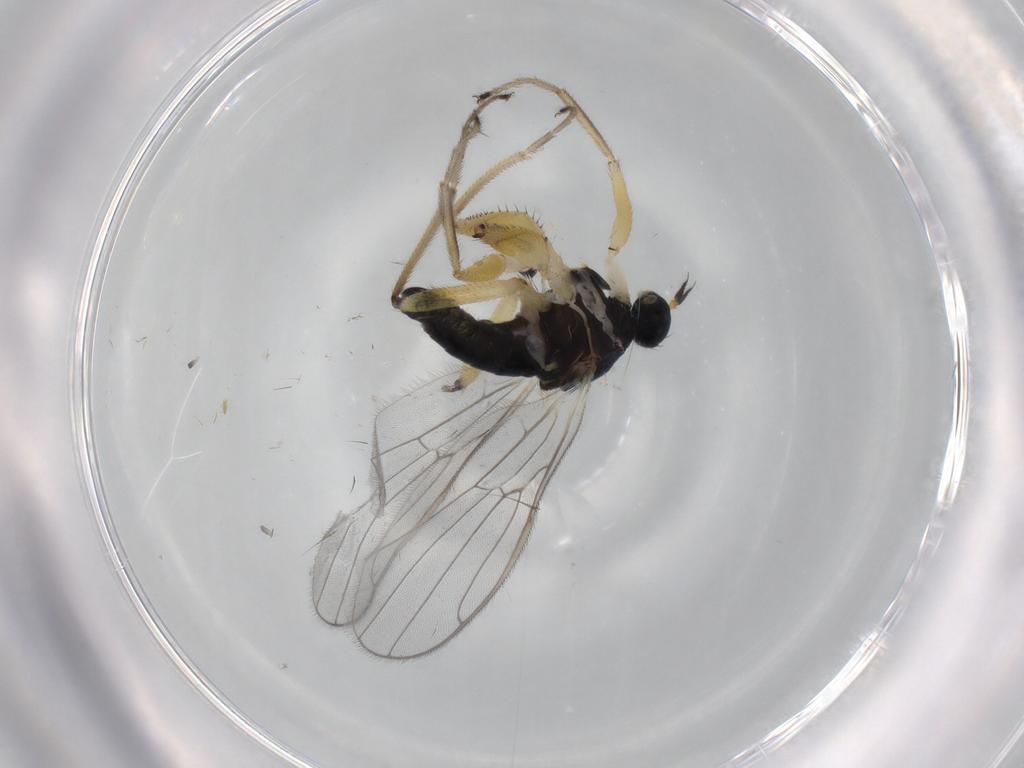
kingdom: Animalia
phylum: Arthropoda
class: Insecta
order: Diptera
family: Hybotidae
